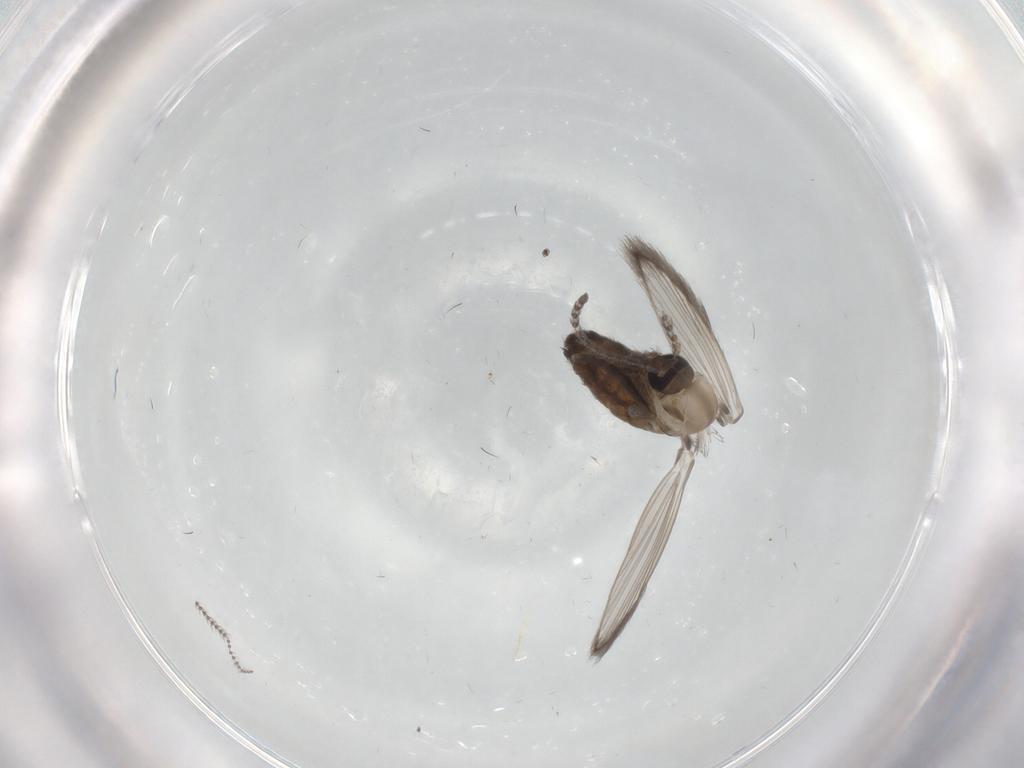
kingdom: Animalia
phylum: Arthropoda
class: Insecta
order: Diptera
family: Psychodidae
